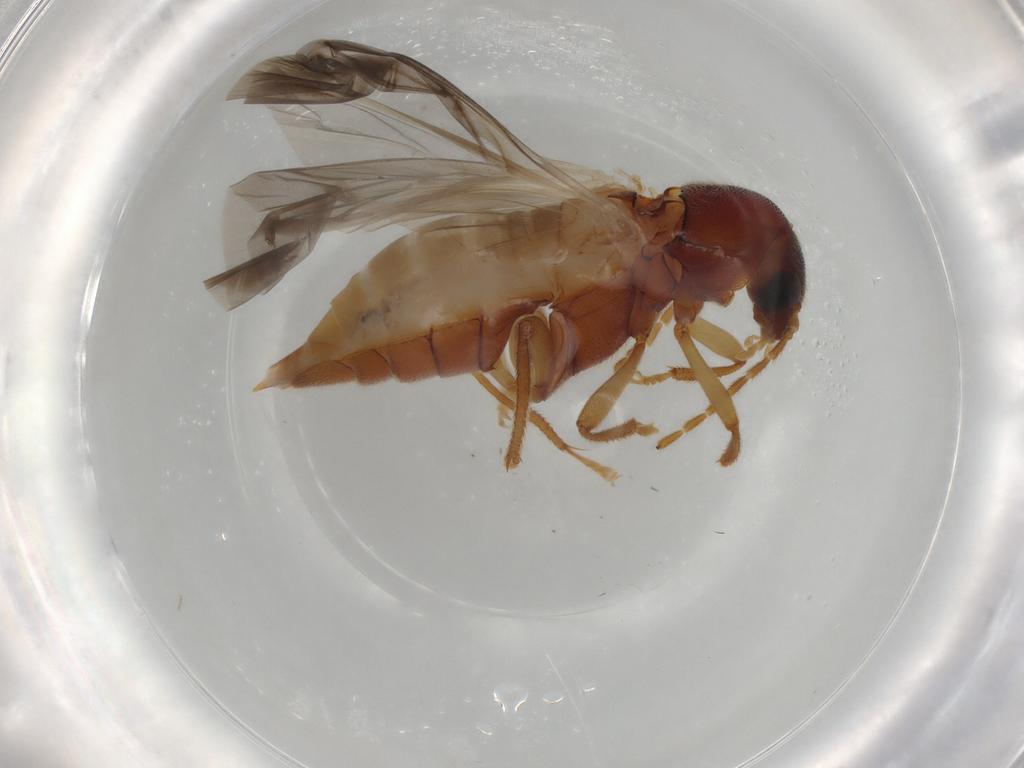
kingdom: Animalia
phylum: Arthropoda
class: Insecta
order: Coleoptera
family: Ptilodactylidae
